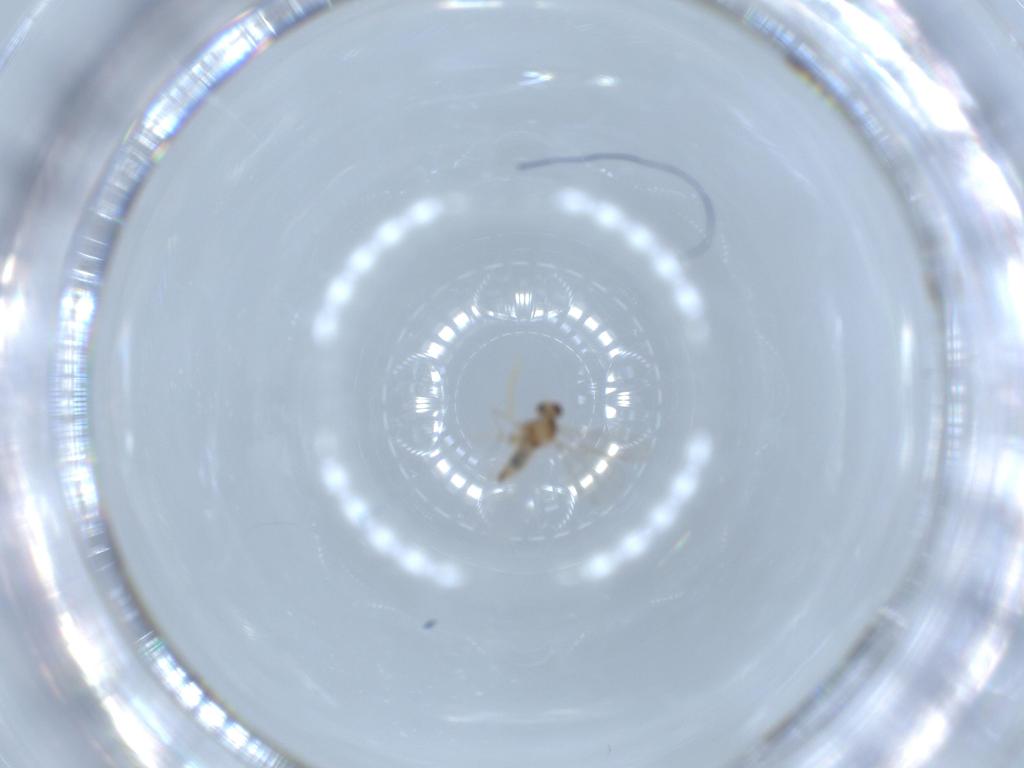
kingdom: Animalia
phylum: Arthropoda
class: Insecta
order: Diptera
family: Cecidomyiidae
